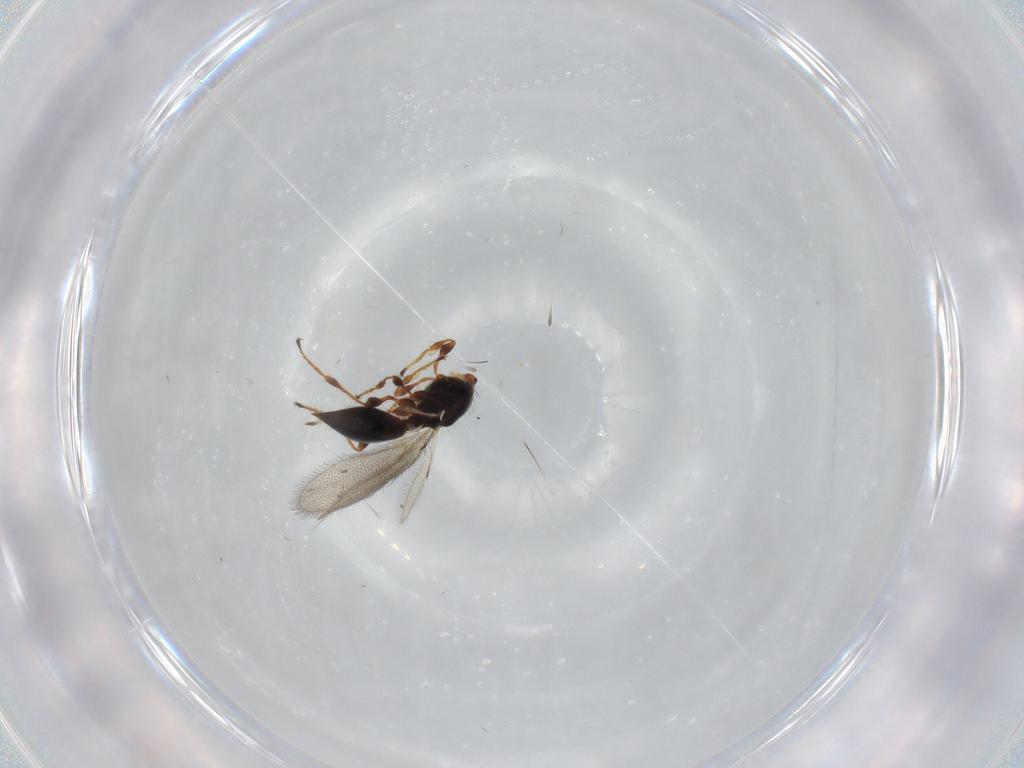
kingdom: Animalia
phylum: Arthropoda
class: Insecta
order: Hymenoptera
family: Diapriidae
